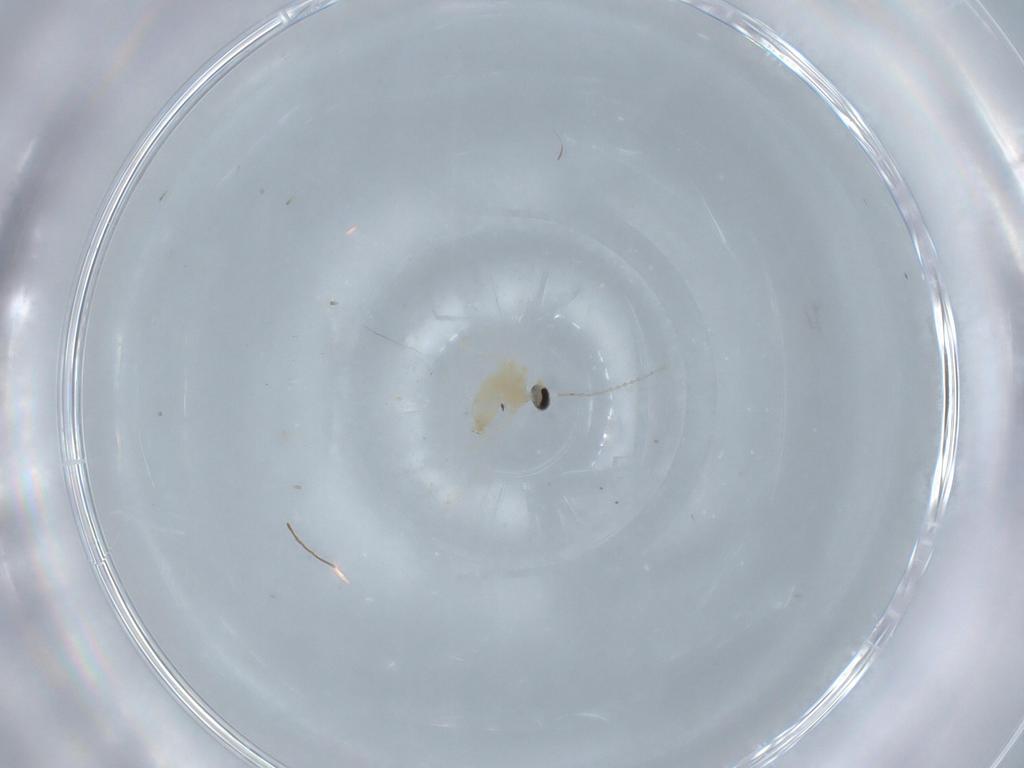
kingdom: Animalia
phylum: Arthropoda
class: Insecta
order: Diptera
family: Cecidomyiidae
